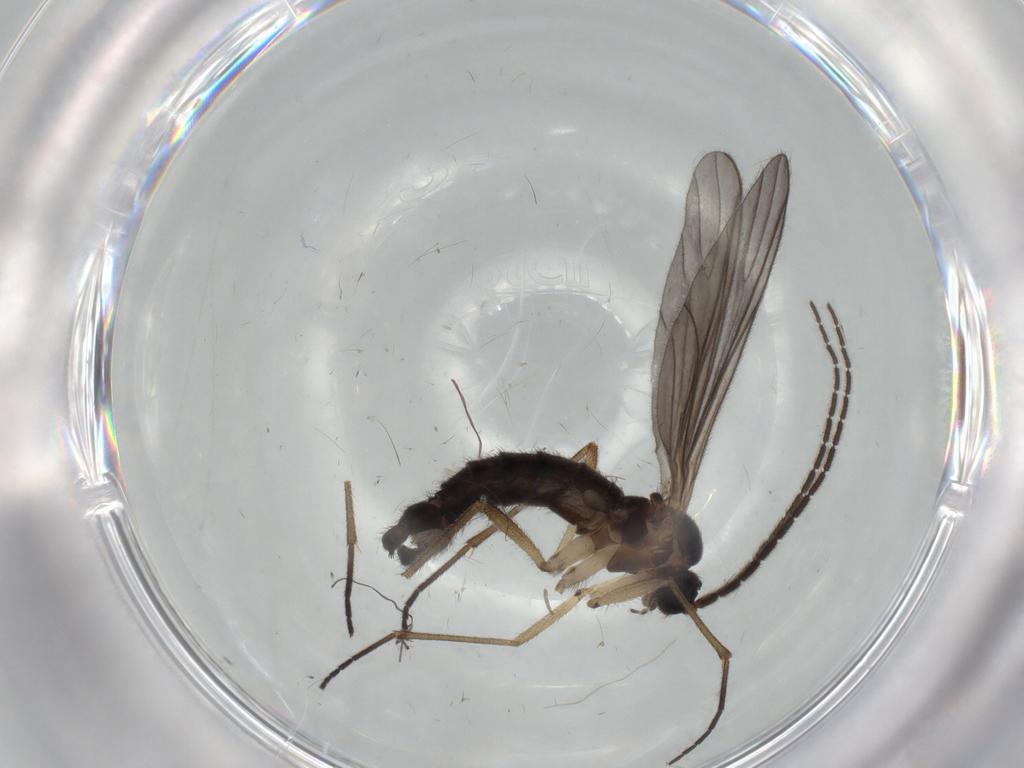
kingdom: Animalia
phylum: Arthropoda
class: Insecta
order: Diptera
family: Sciaridae
